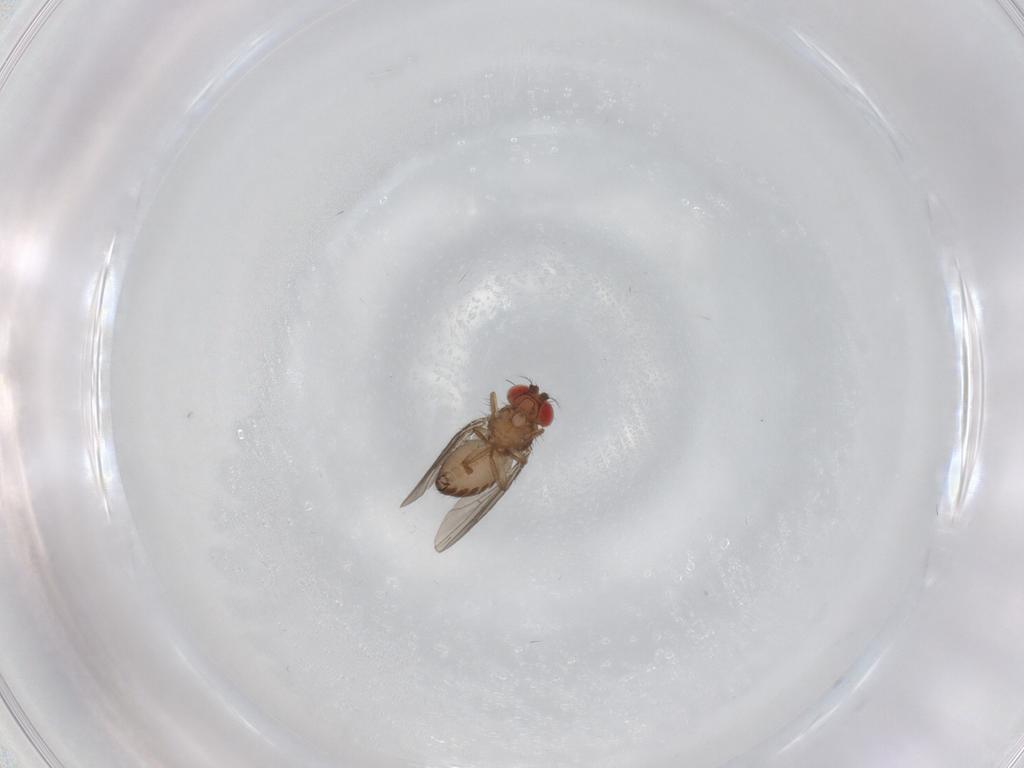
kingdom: Animalia
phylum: Arthropoda
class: Insecta
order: Diptera
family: Drosophilidae
